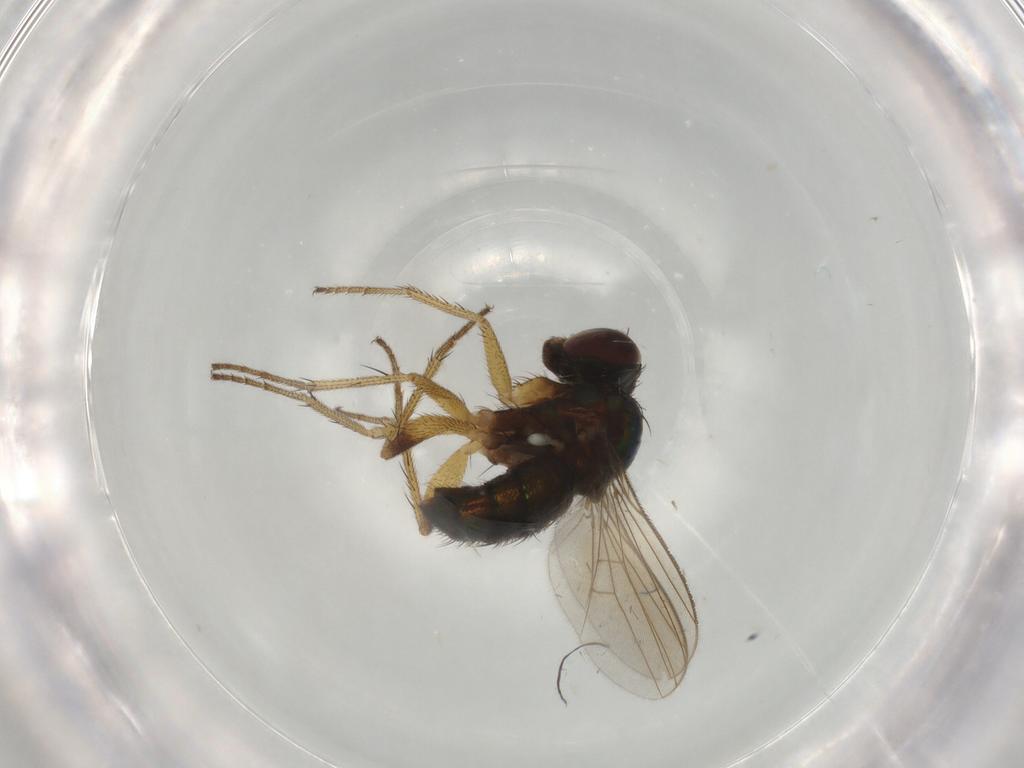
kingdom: Animalia
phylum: Arthropoda
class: Insecta
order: Diptera
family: Dolichopodidae
